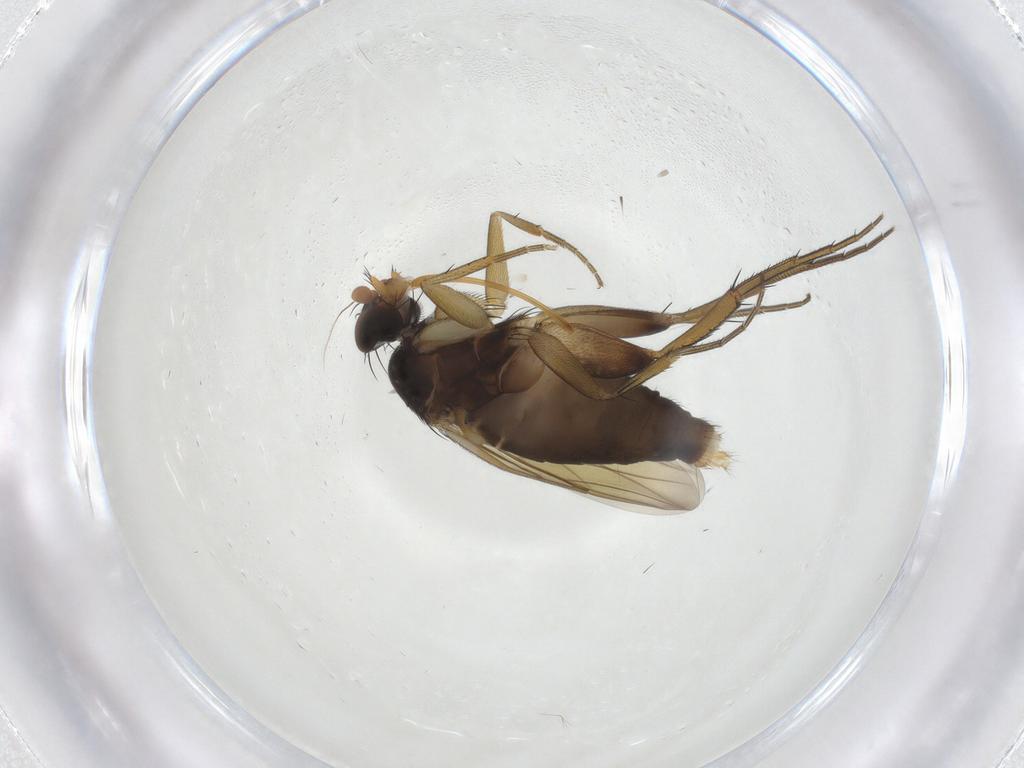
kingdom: Animalia
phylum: Arthropoda
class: Insecta
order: Diptera
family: Phoridae
